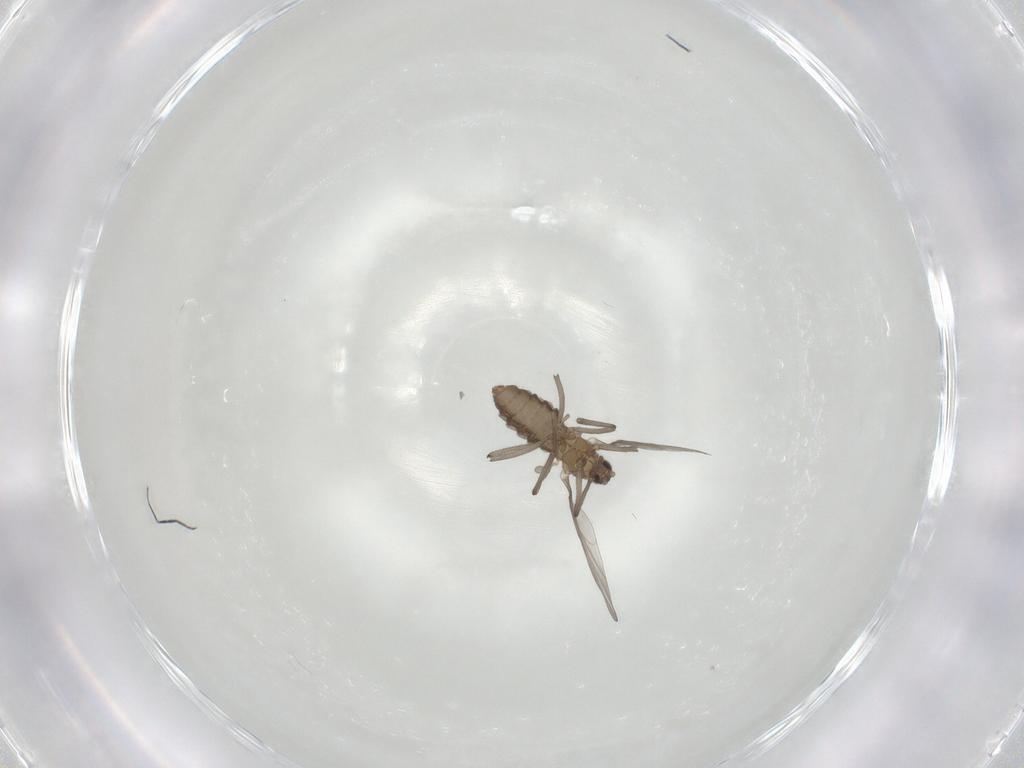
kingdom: Animalia
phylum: Arthropoda
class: Insecta
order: Diptera
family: Cecidomyiidae
